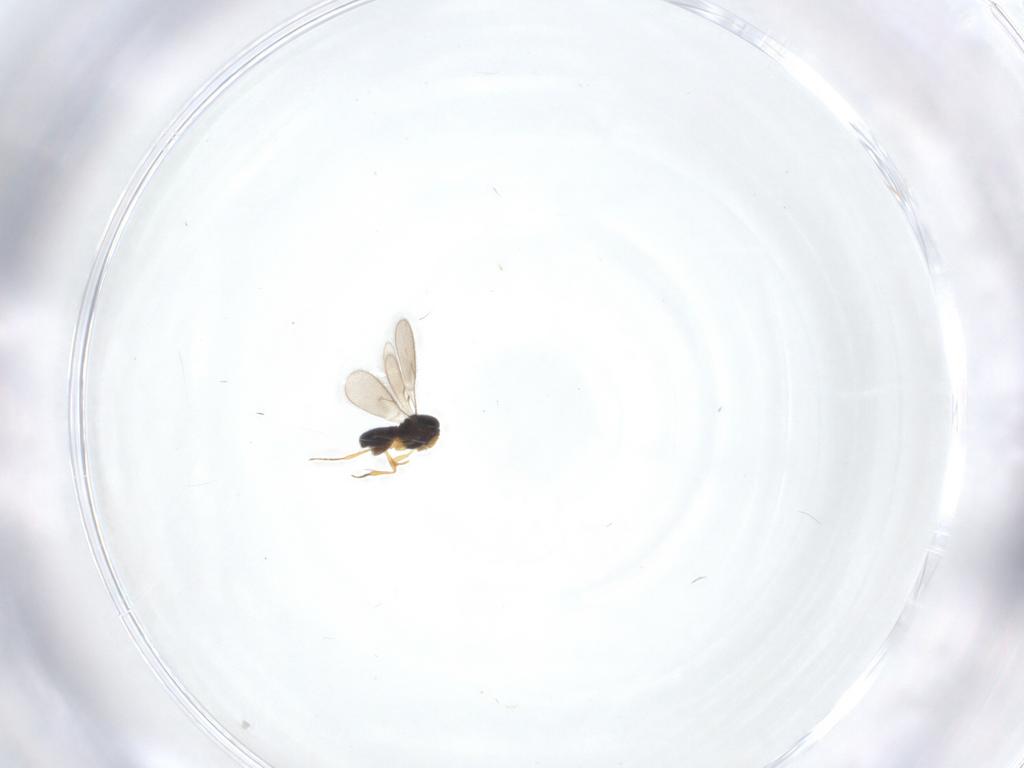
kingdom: Animalia
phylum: Arthropoda
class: Insecta
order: Hymenoptera
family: Scelionidae
